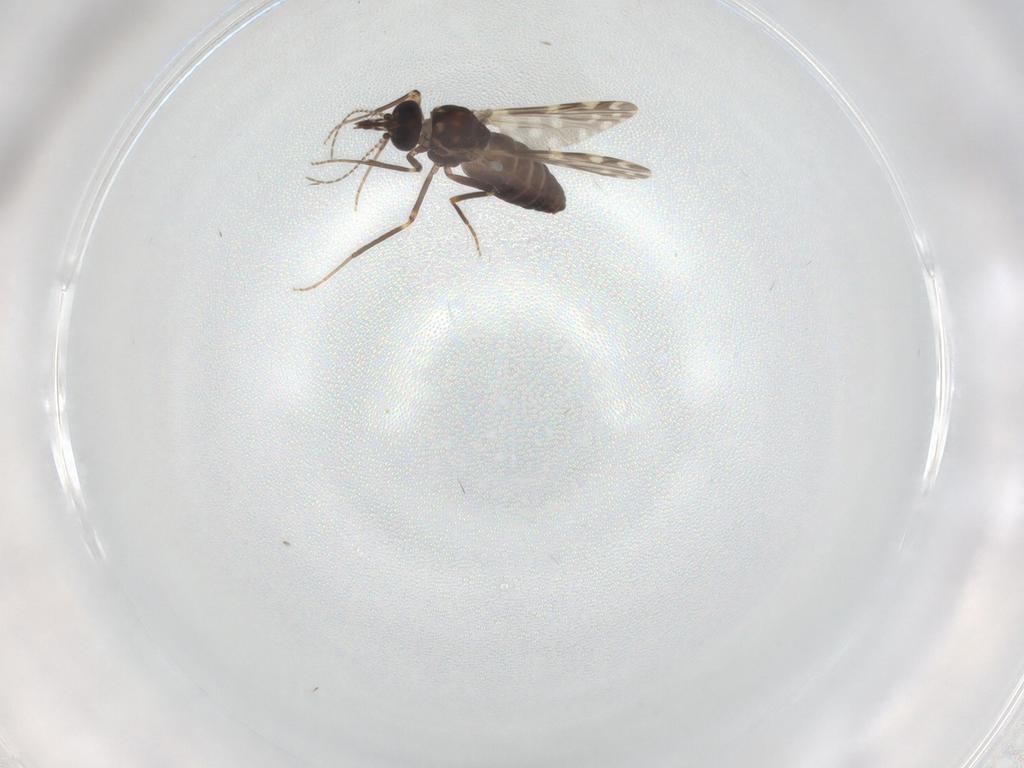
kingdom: Animalia
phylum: Arthropoda
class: Insecta
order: Diptera
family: Ceratopogonidae
